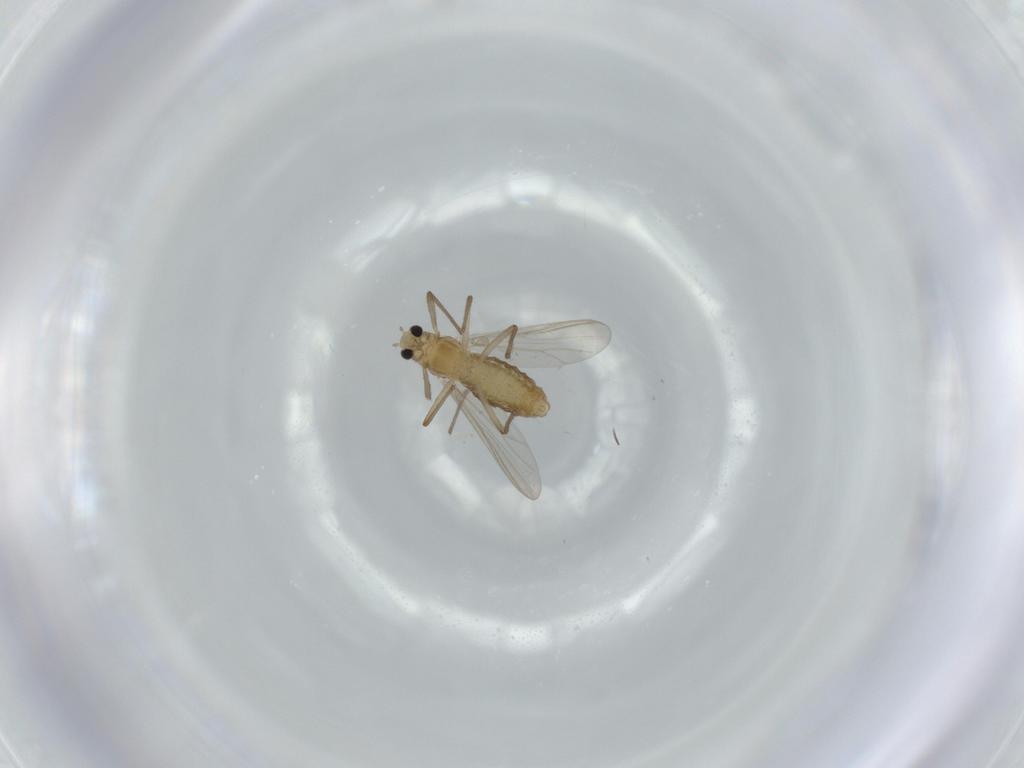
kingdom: Animalia
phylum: Arthropoda
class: Insecta
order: Diptera
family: Chironomidae
